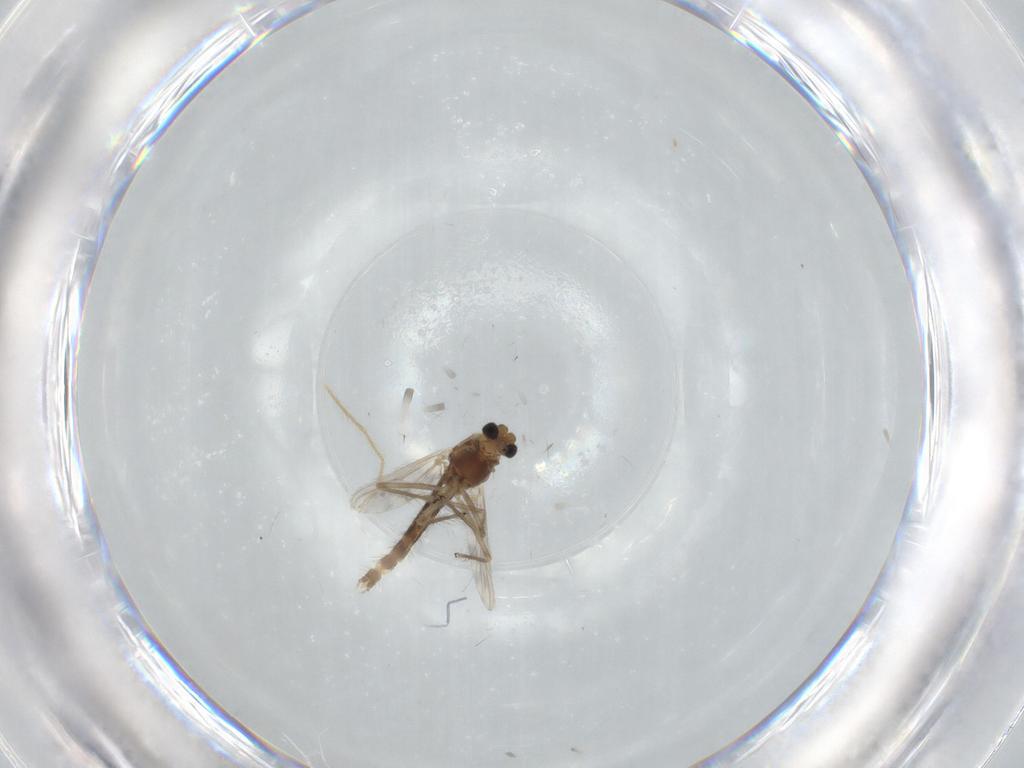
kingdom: Animalia
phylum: Arthropoda
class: Insecta
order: Diptera
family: Chironomidae
